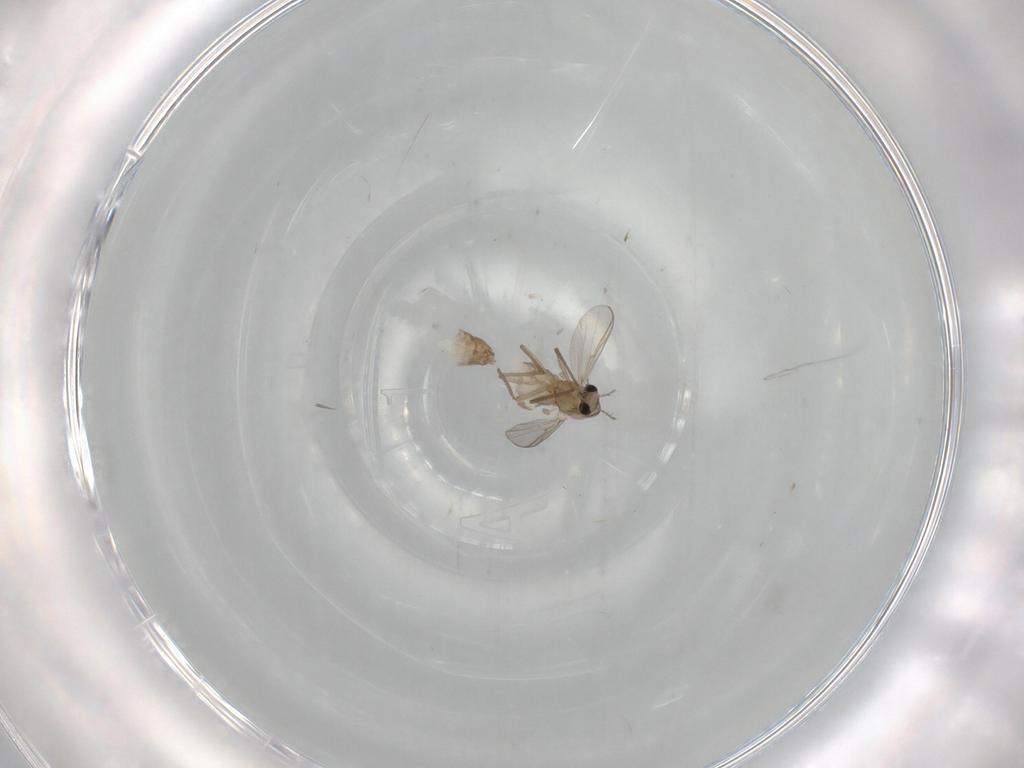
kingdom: Animalia
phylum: Arthropoda
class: Insecta
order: Diptera
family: Chironomidae
